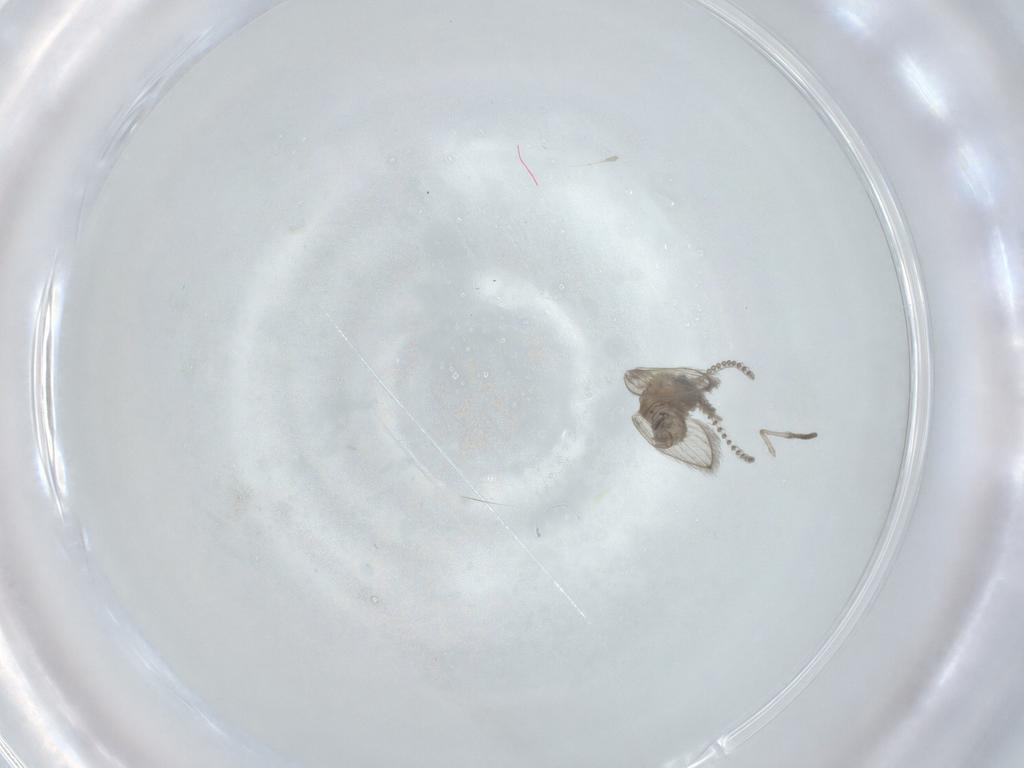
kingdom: Animalia
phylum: Arthropoda
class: Insecta
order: Diptera
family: Psychodidae
